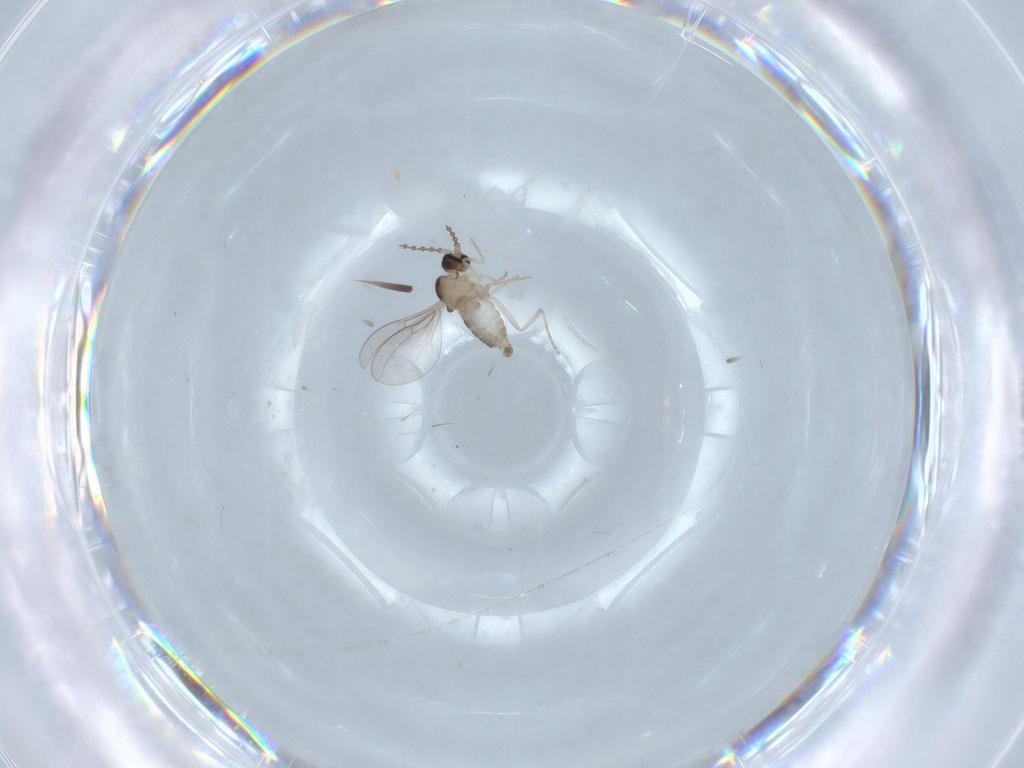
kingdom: Animalia
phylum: Arthropoda
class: Insecta
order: Diptera
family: Cecidomyiidae
